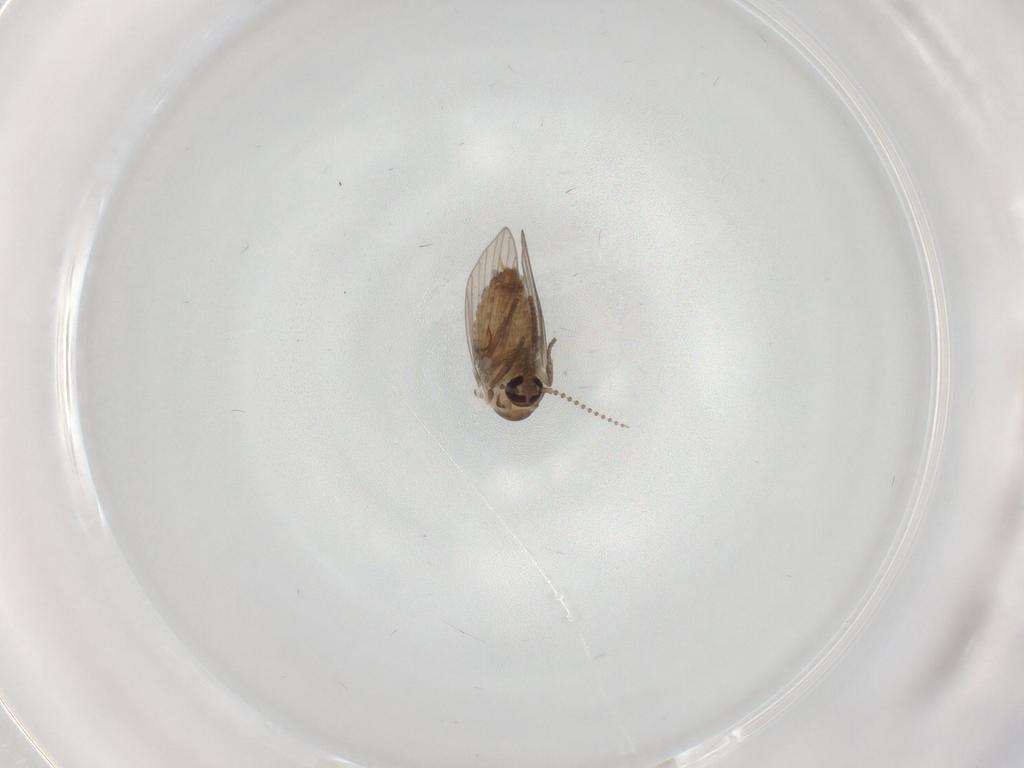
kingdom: Animalia
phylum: Arthropoda
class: Insecta
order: Diptera
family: Cecidomyiidae
